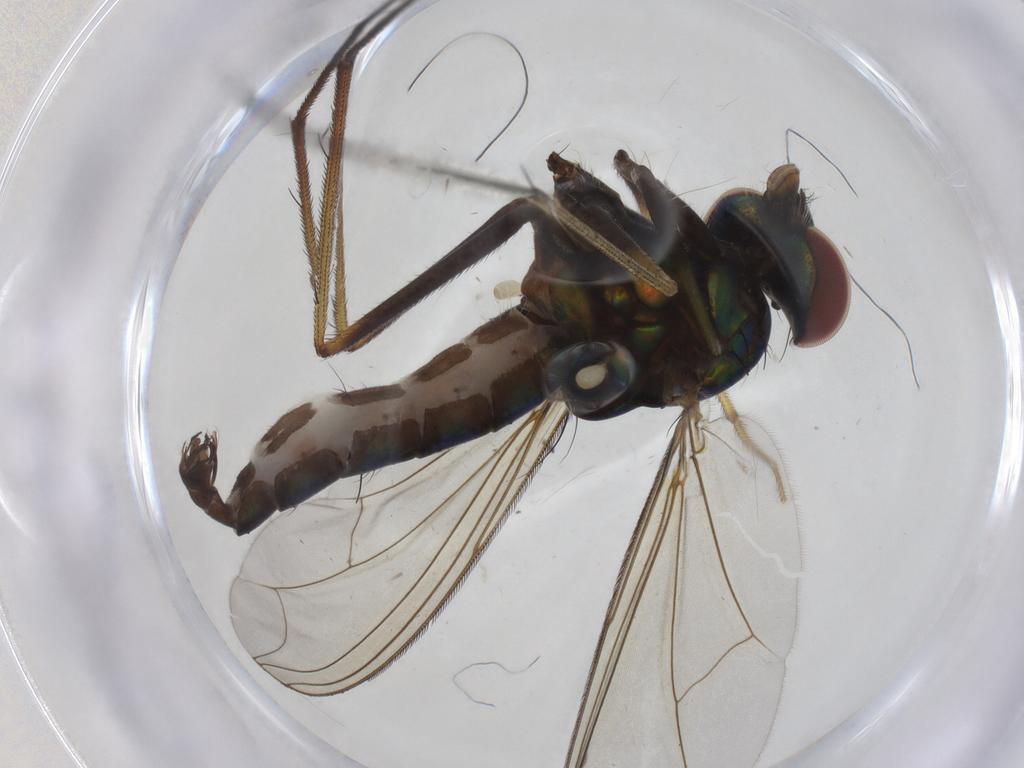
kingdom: Animalia
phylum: Arthropoda
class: Insecta
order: Diptera
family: Dolichopodidae
